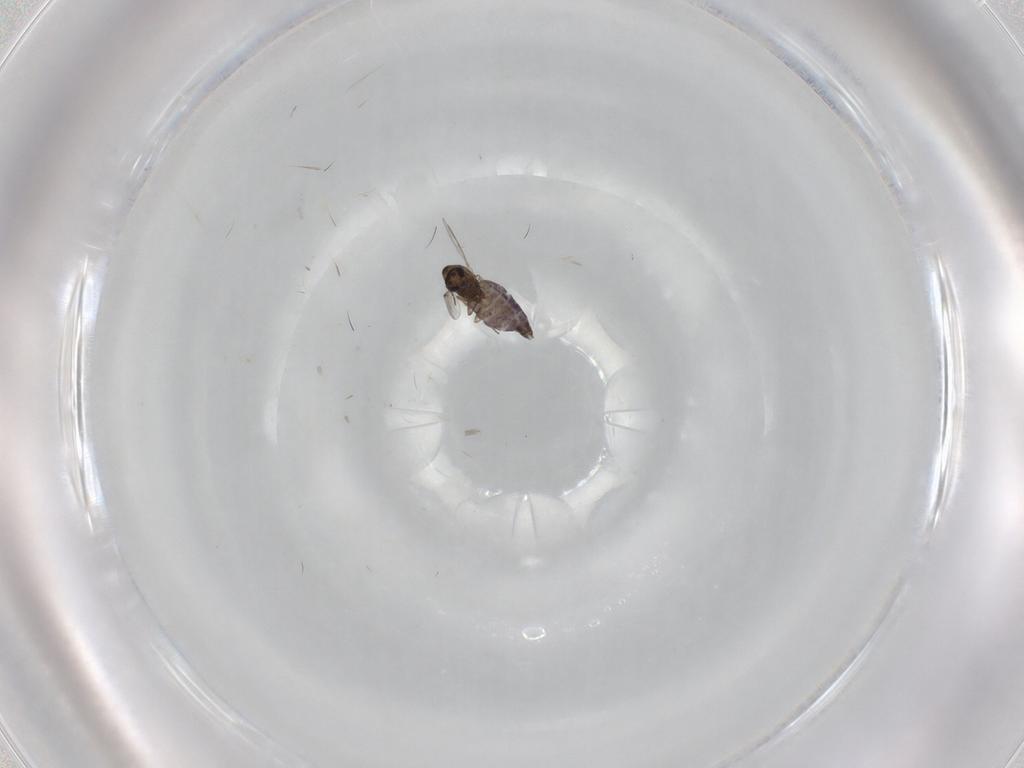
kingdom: Animalia
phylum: Arthropoda
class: Insecta
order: Diptera
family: Chironomidae
